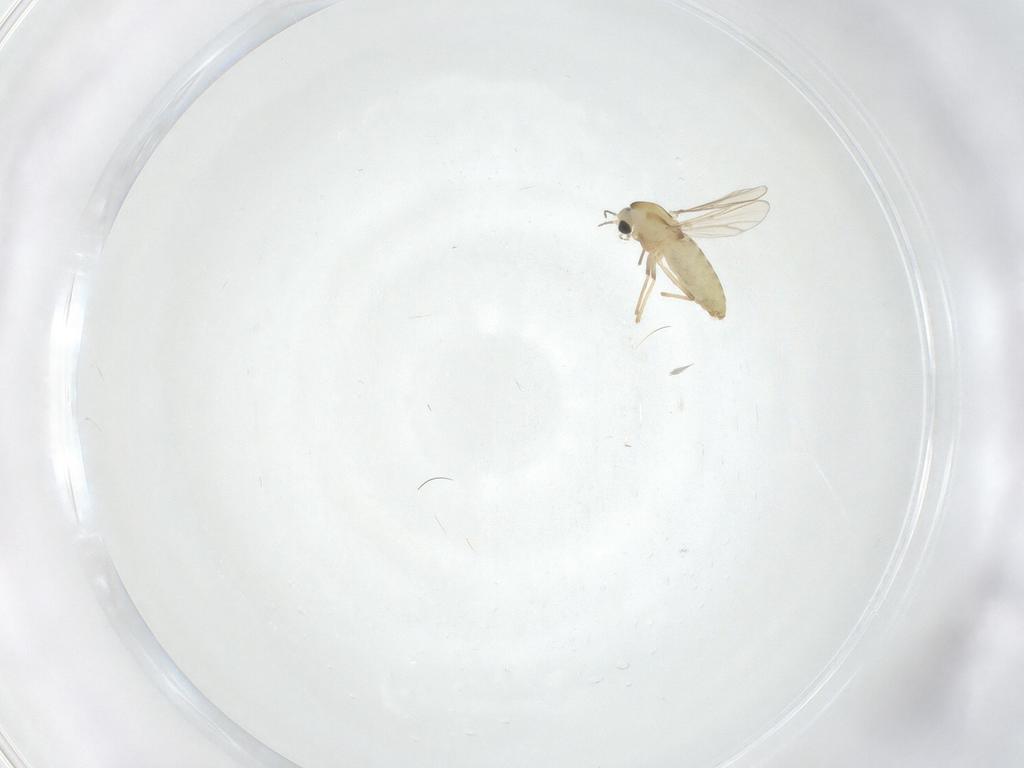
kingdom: Animalia
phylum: Arthropoda
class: Insecta
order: Diptera
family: Chironomidae
